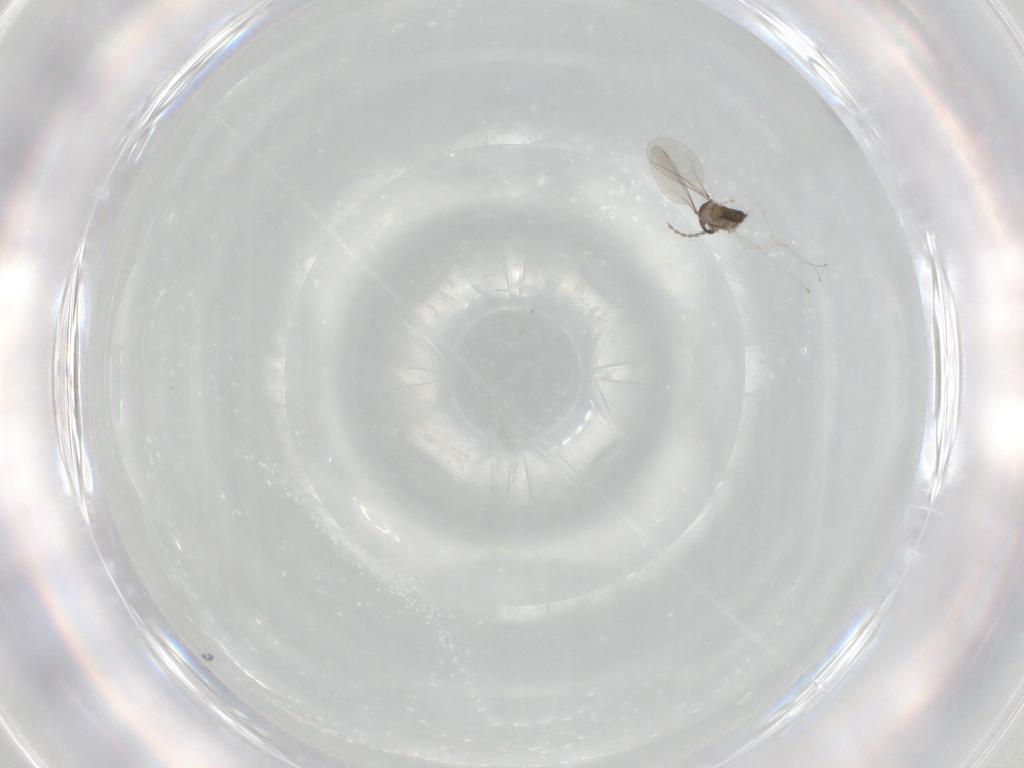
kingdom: Animalia
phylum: Arthropoda
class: Insecta
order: Diptera
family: Cecidomyiidae
